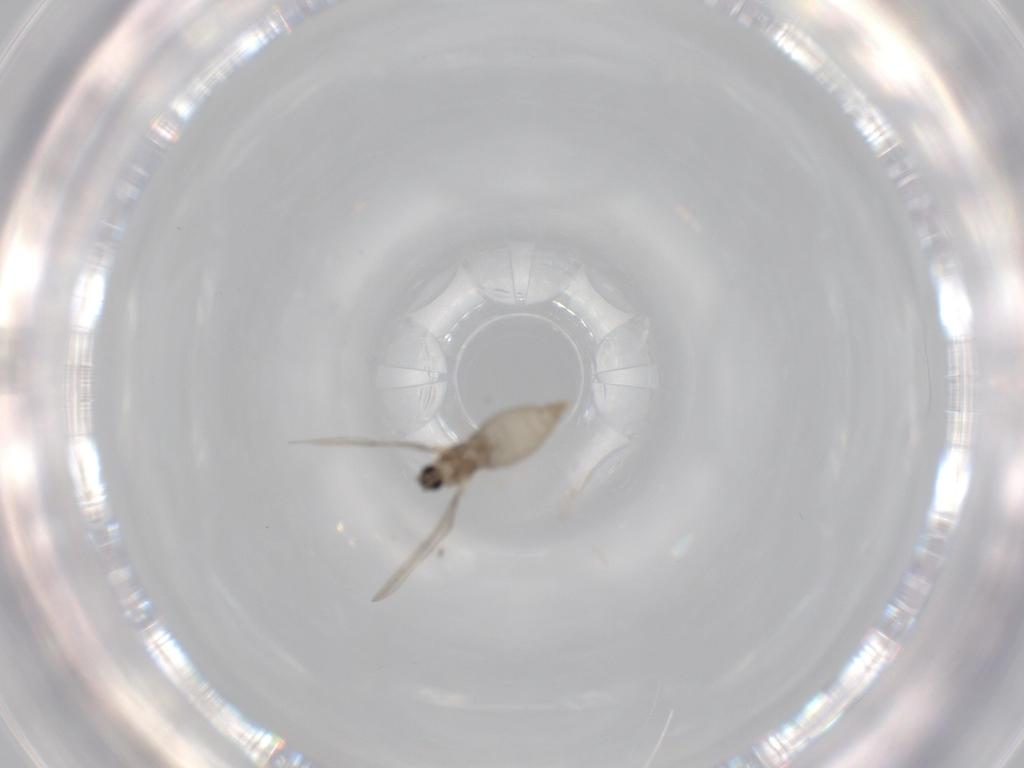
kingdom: Animalia
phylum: Arthropoda
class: Insecta
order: Diptera
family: Cecidomyiidae
